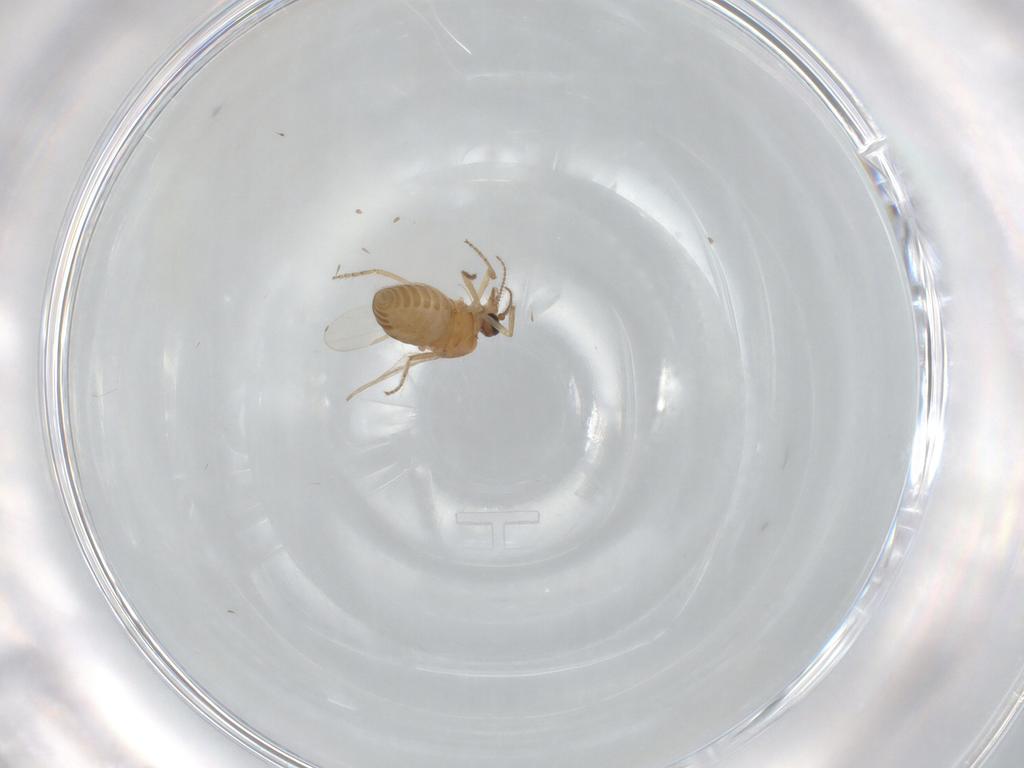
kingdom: Animalia
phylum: Arthropoda
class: Insecta
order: Diptera
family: Ceratopogonidae
